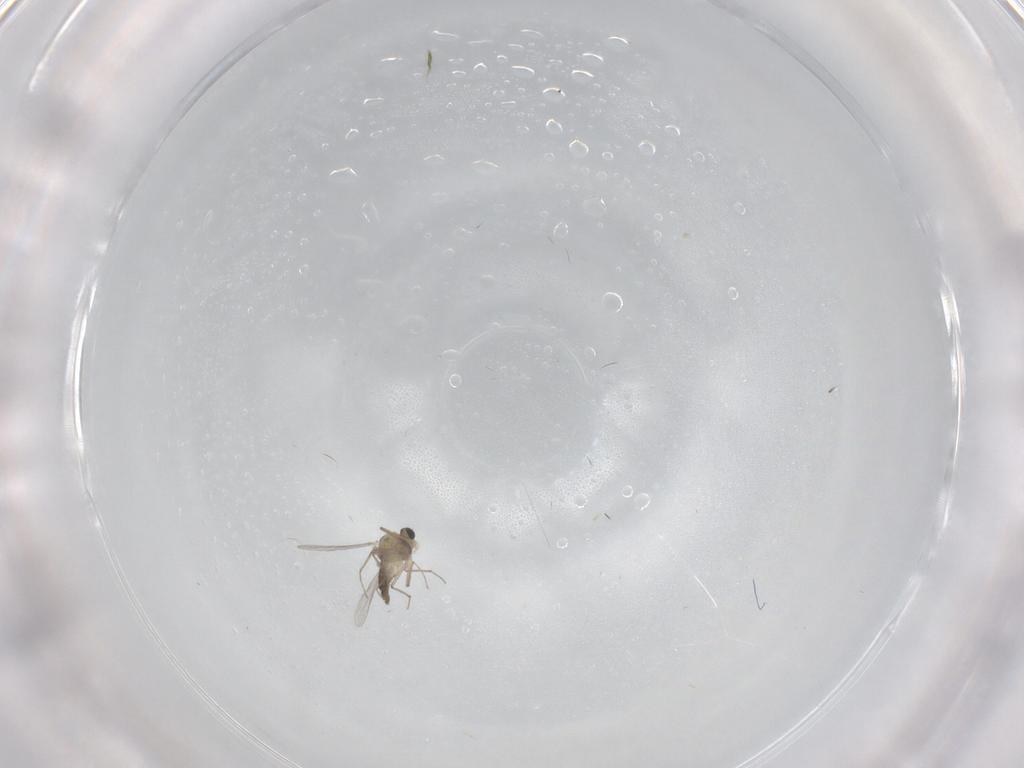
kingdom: Animalia
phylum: Arthropoda
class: Insecta
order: Diptera
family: Chironomidae
